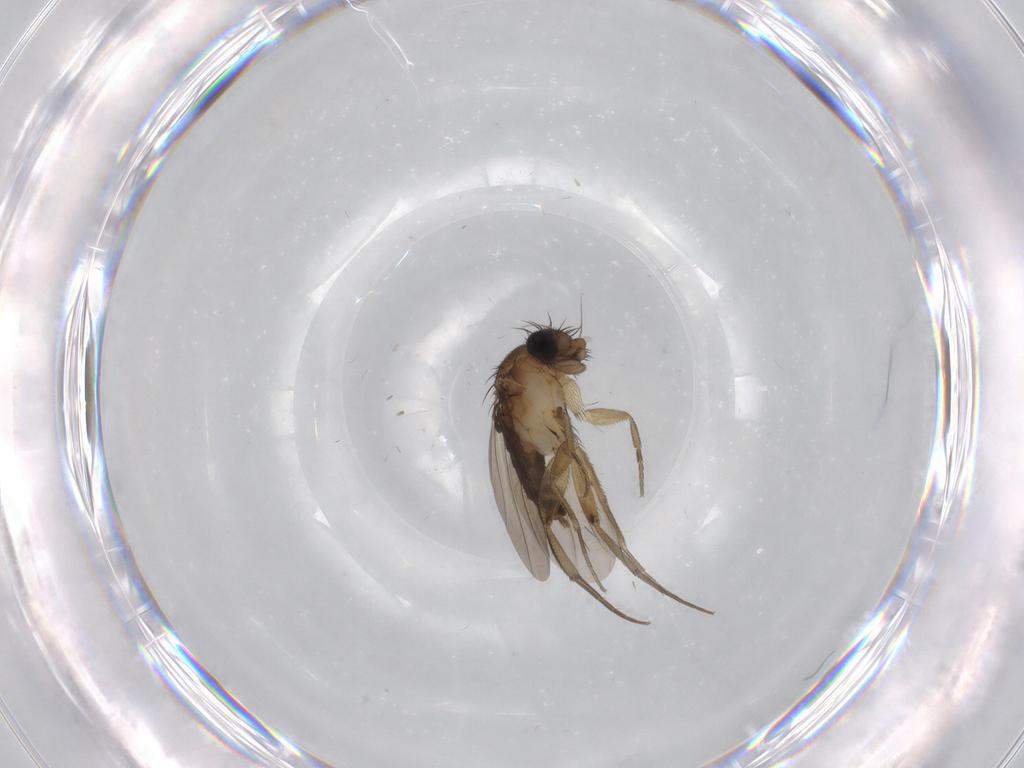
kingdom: Animalia
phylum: Arthropoda
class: Insecta
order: Diptera
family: Phoridae
